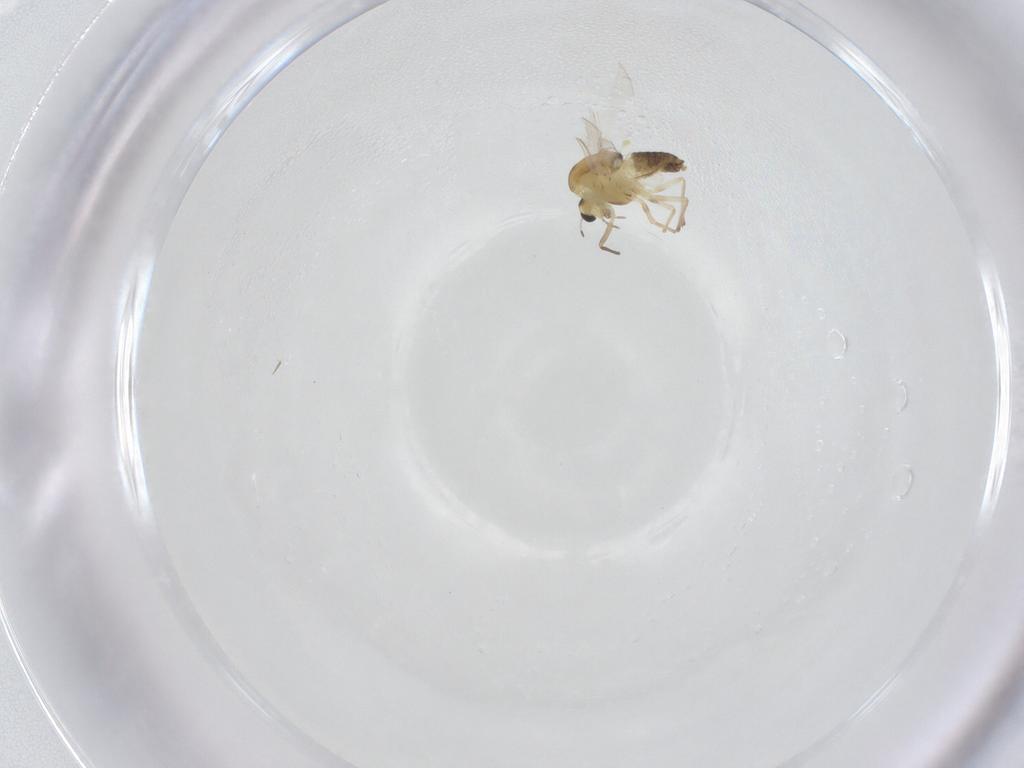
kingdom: Animalia
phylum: Arthropoda
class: Insecta
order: Diptera
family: Chironomidae
